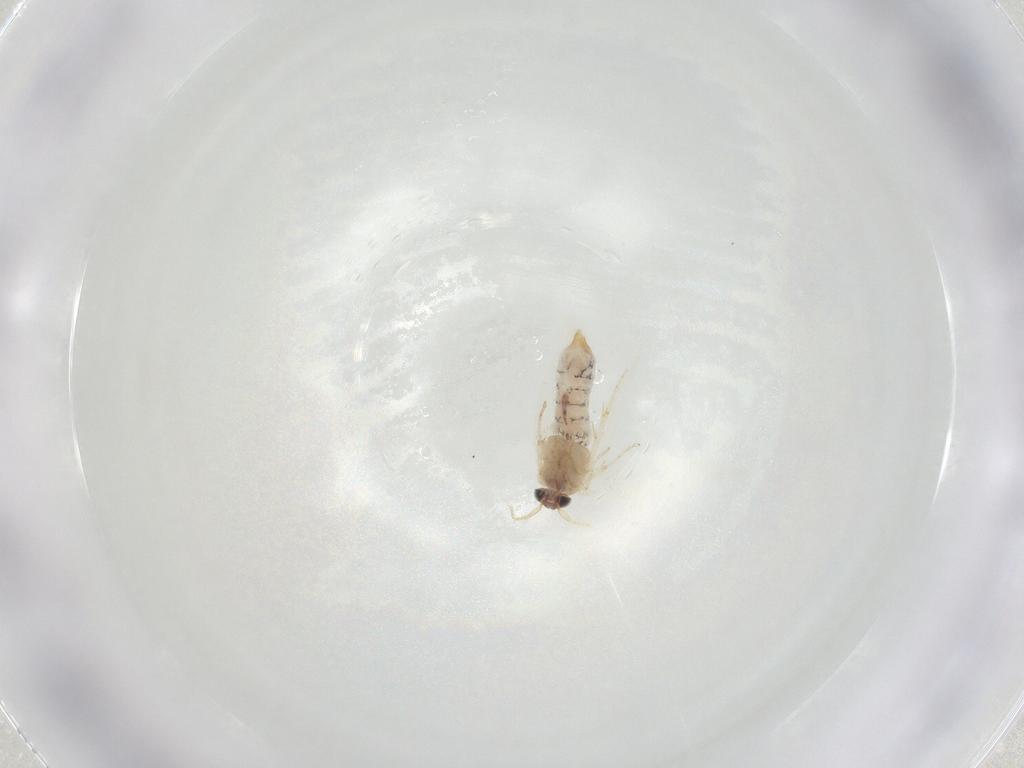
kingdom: Animalia
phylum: Arthropoda
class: Insecta
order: Lepidoptera
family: Nepticulidae
